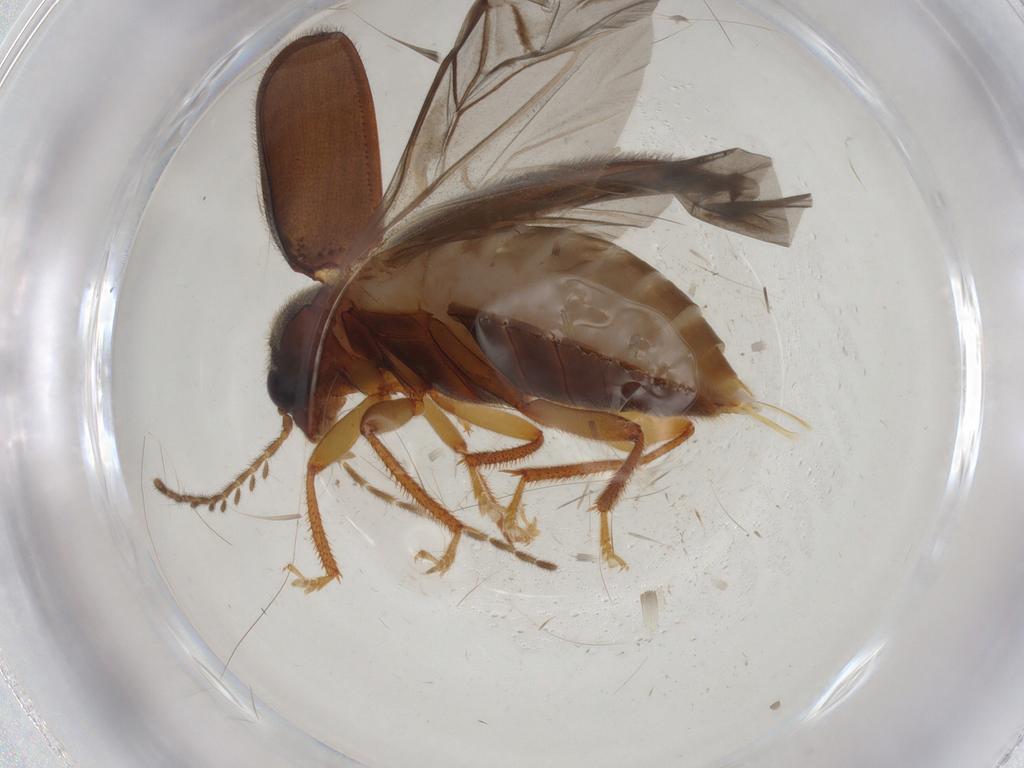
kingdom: Animalia
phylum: Arthropoda
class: Insecta
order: Coleoptera
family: Ptilodactylidae
